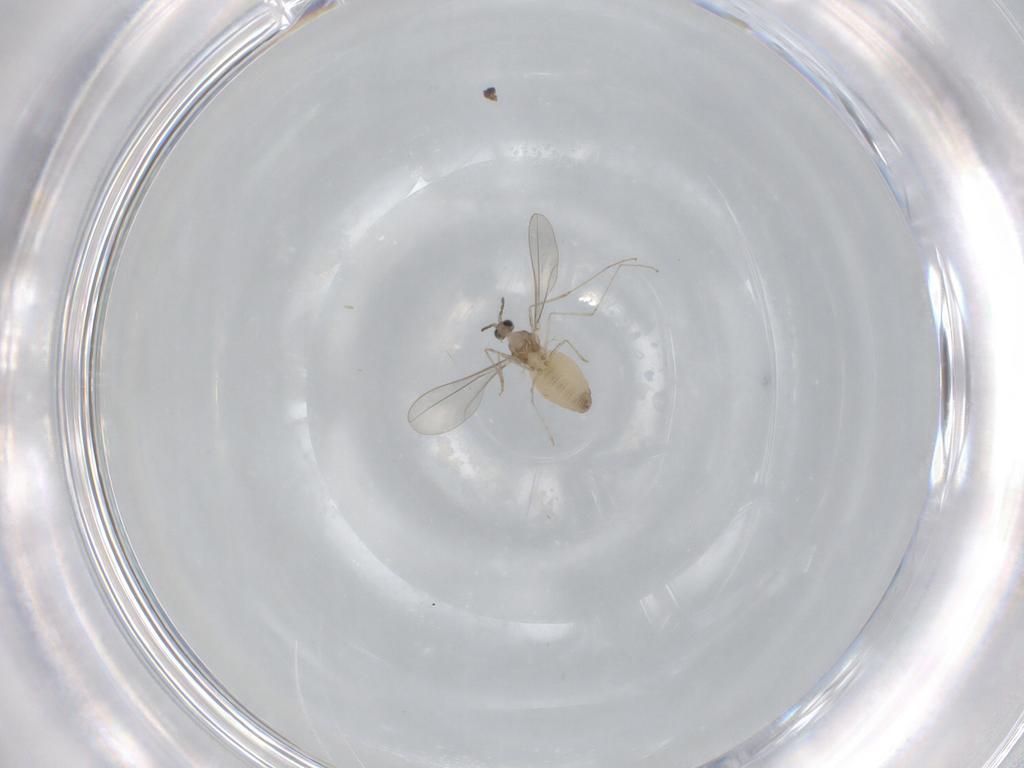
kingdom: Animalia
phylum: Arthropoda
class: Insecta
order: Diptera
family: Cecidomyiidae
